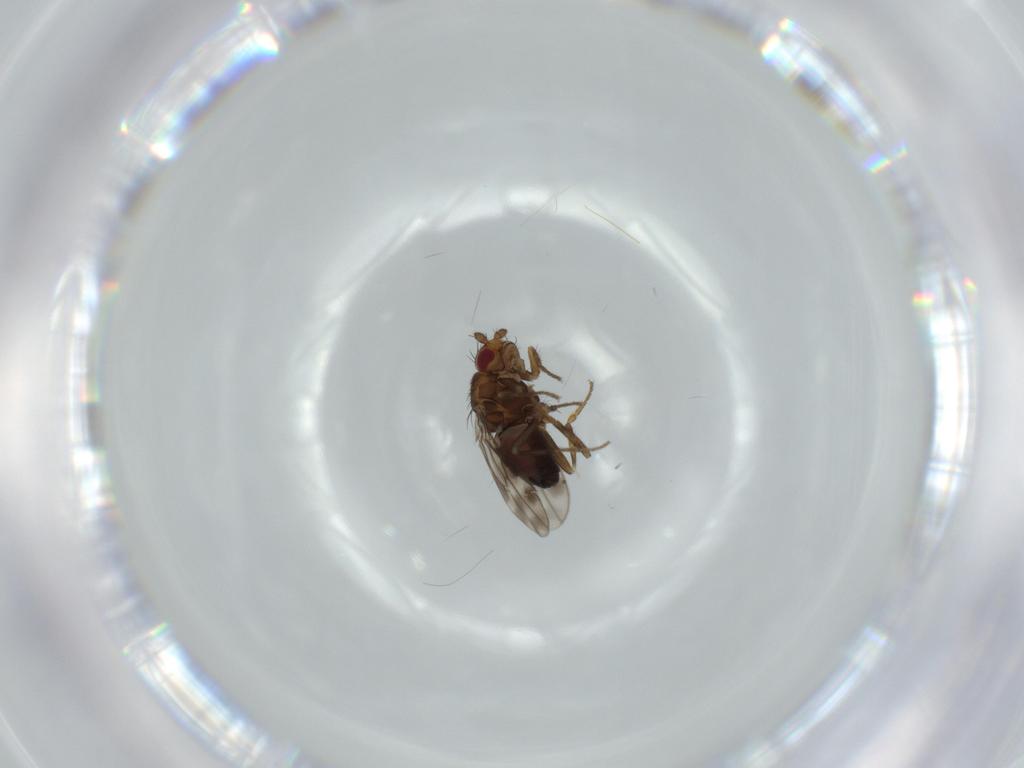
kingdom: Animalia
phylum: Arthropoda
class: Insecta
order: Diptera
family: Sphaeroceridae
